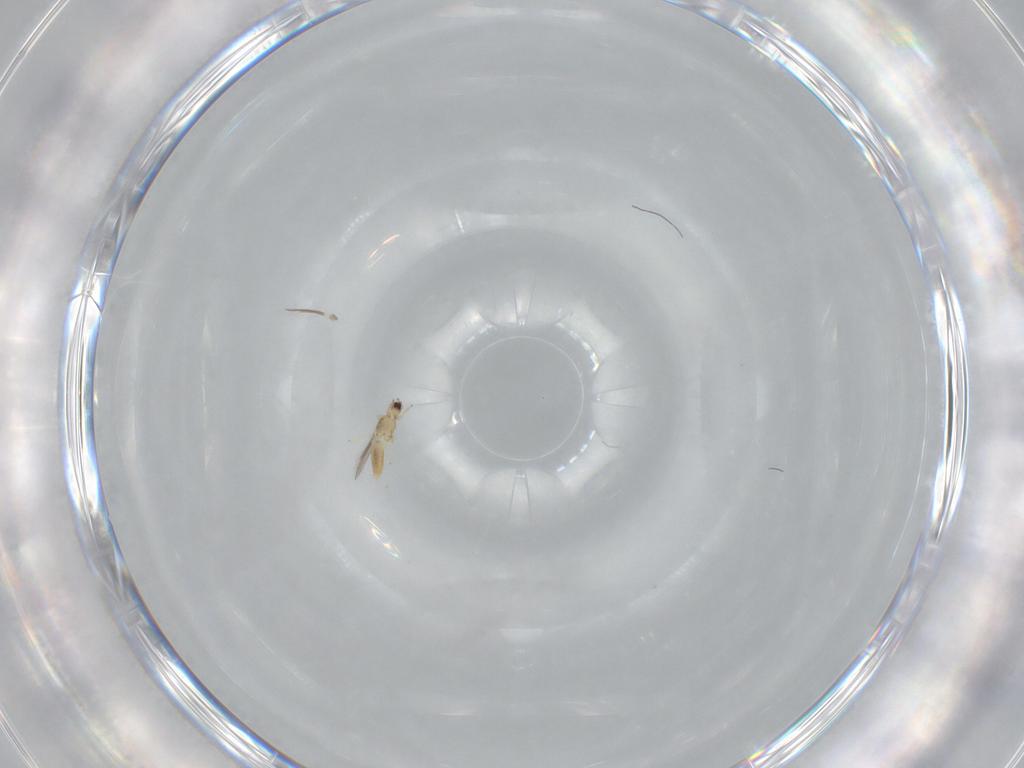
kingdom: Animalia
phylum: Arthropoda
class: Insecta
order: Thysanoptera
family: Thripidae
